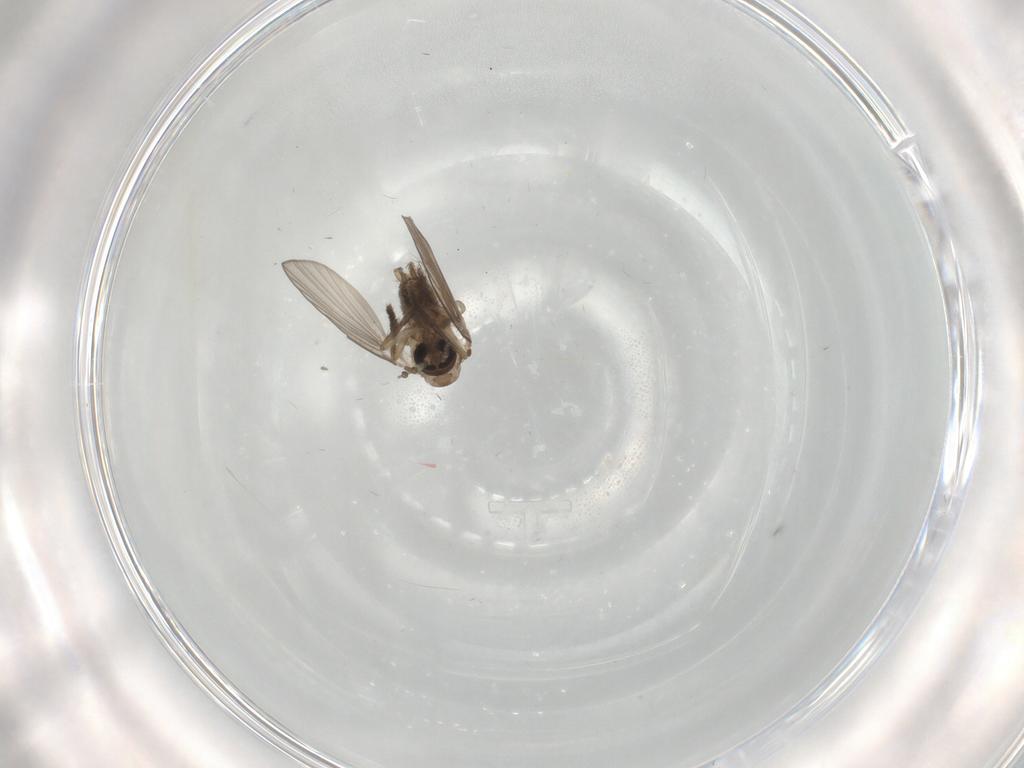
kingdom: Animalia
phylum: Arthropoda
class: Insecta
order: Diptera
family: Psychodidae
